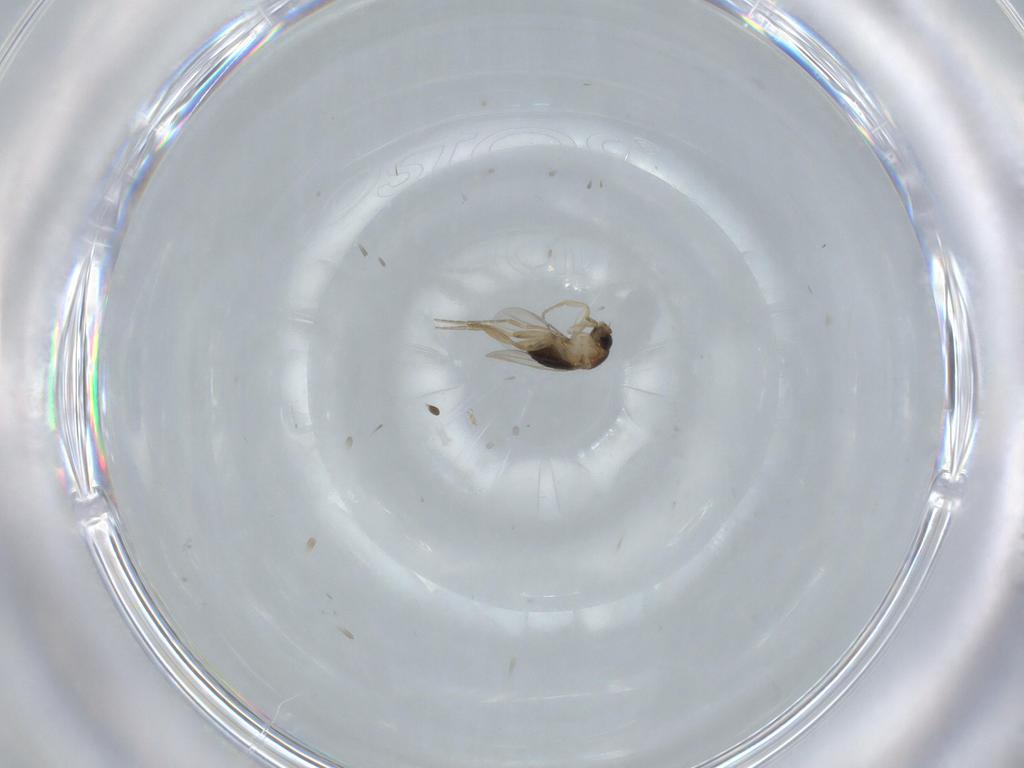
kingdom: Animalia
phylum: Arthropoda
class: Insecta
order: Diptera
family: Phoridae
